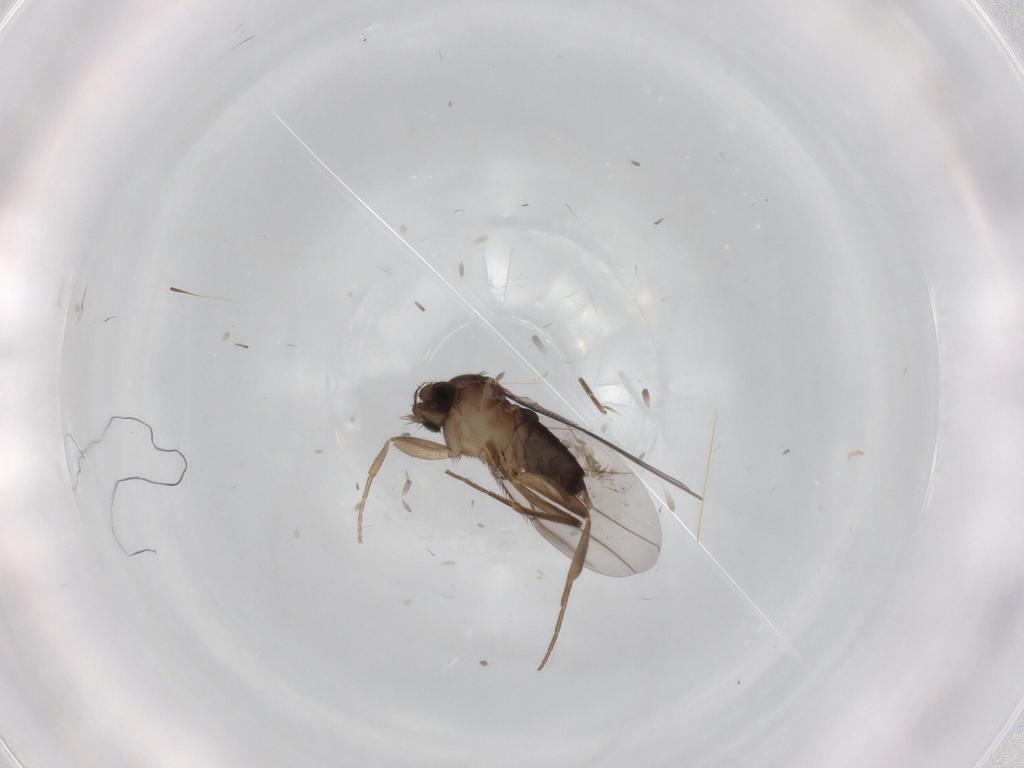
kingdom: Animalia
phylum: Arthropoda
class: Insecta
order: Diptera
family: Phoridae
